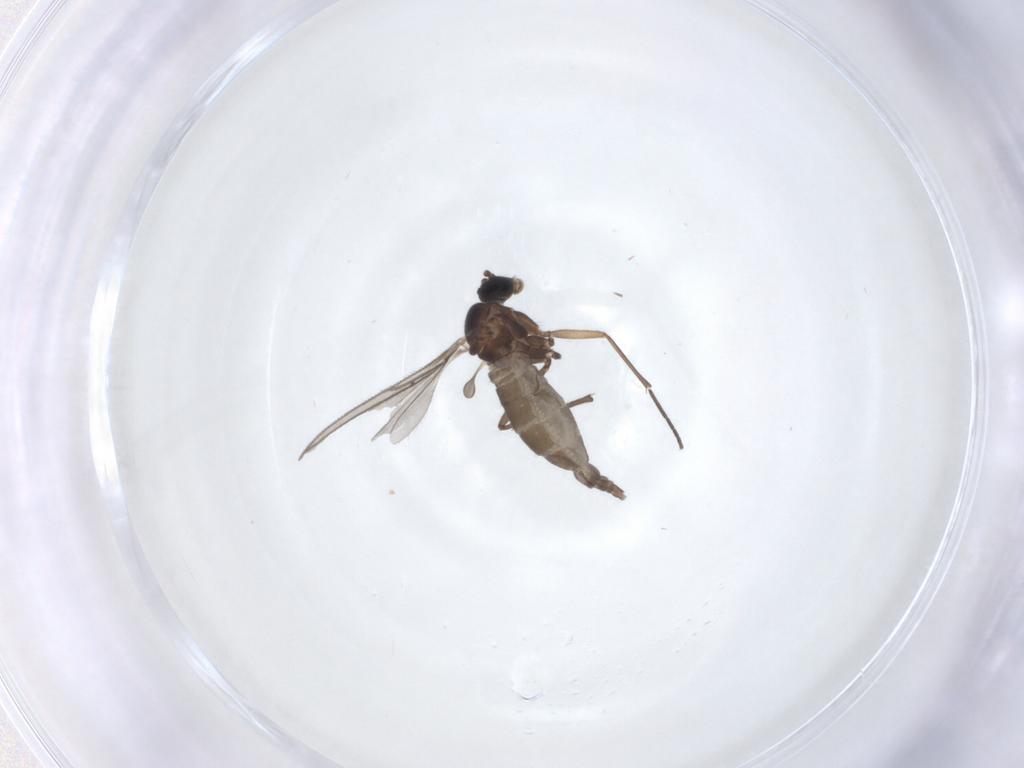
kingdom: Animalia
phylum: Arthropoda
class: Insecta
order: Diptera
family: Sciaridae
